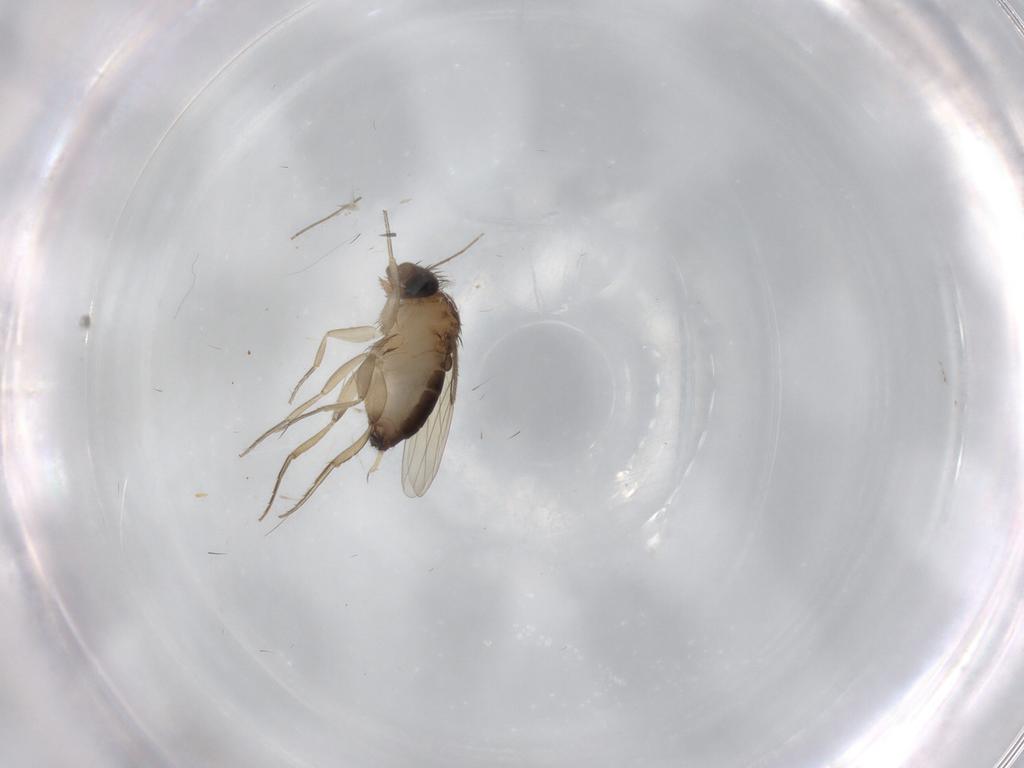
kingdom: Animalia
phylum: Arthropoda
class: Insecta
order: Diptera
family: Phoridae
